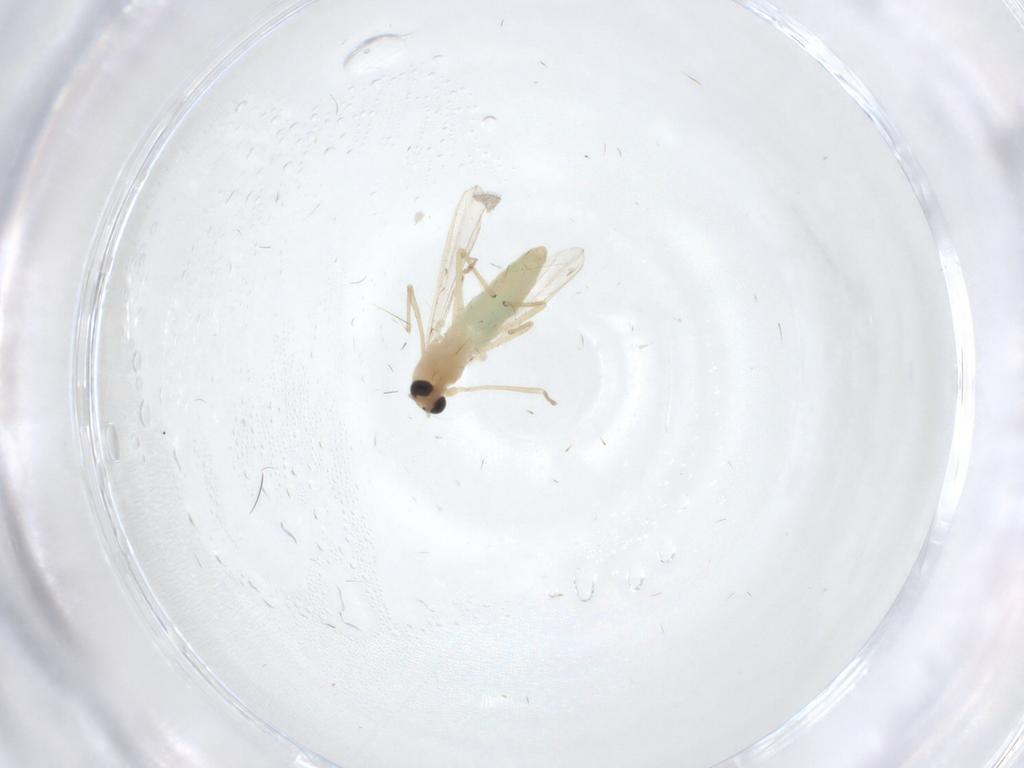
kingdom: Animalia
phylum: Arthropoda
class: Insecta
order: Diptera
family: Chironomidae
